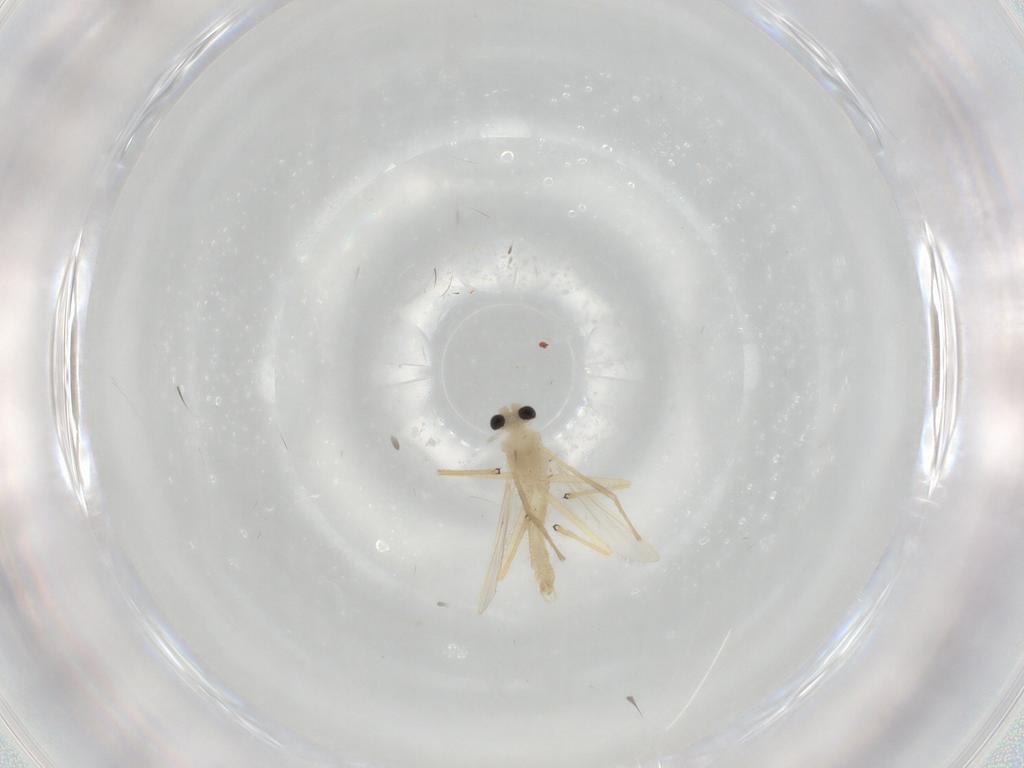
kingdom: Animalia
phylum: Arthropoda
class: Insecta
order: Diptera
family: Chironomidae
